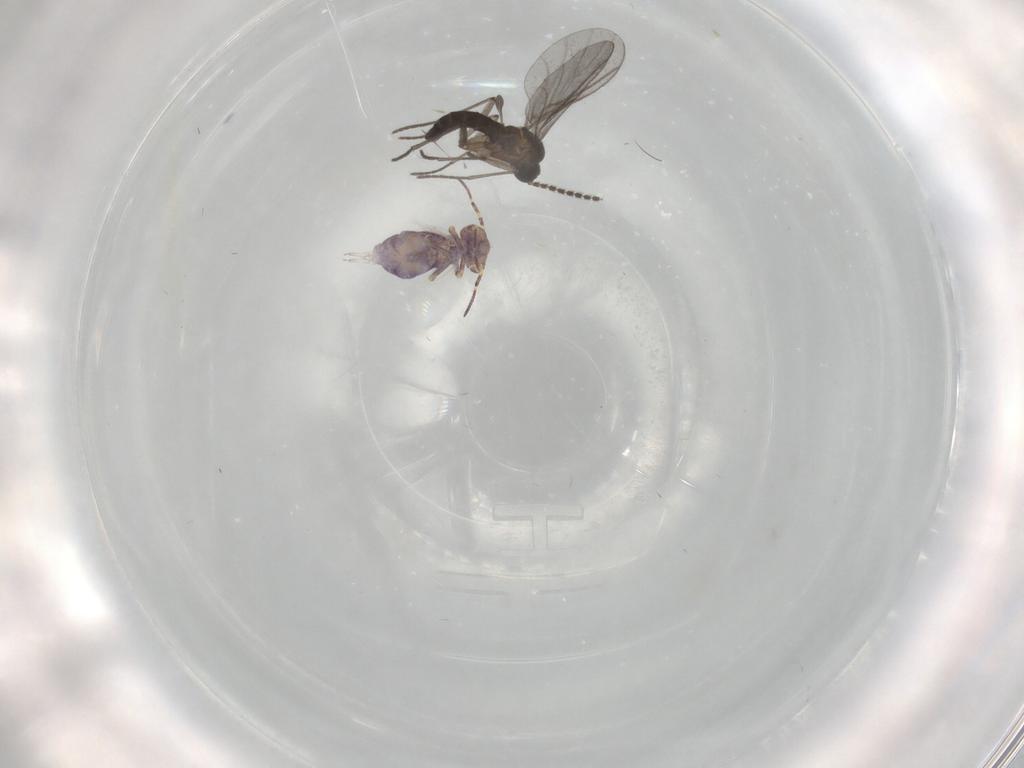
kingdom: Animalia
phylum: Arthropoda
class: Collembola
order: Symphypleona
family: Sminthuridae
